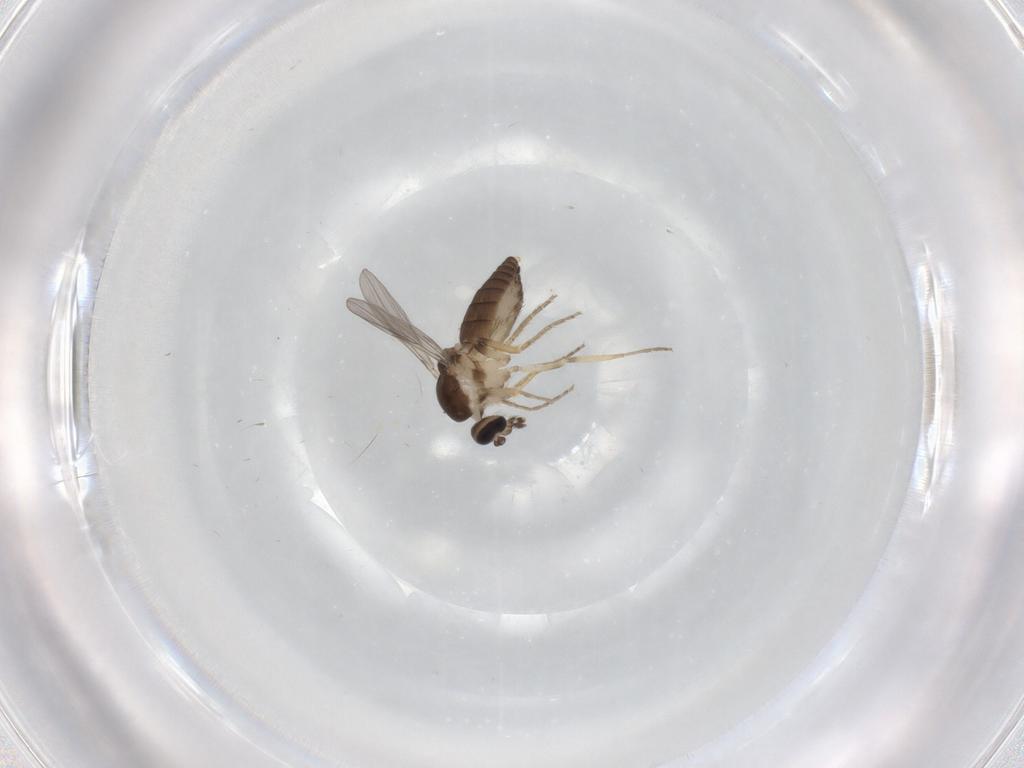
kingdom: Animalia
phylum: Arthropoda
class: Insecta
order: Diptera
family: Ceratopogonidae
